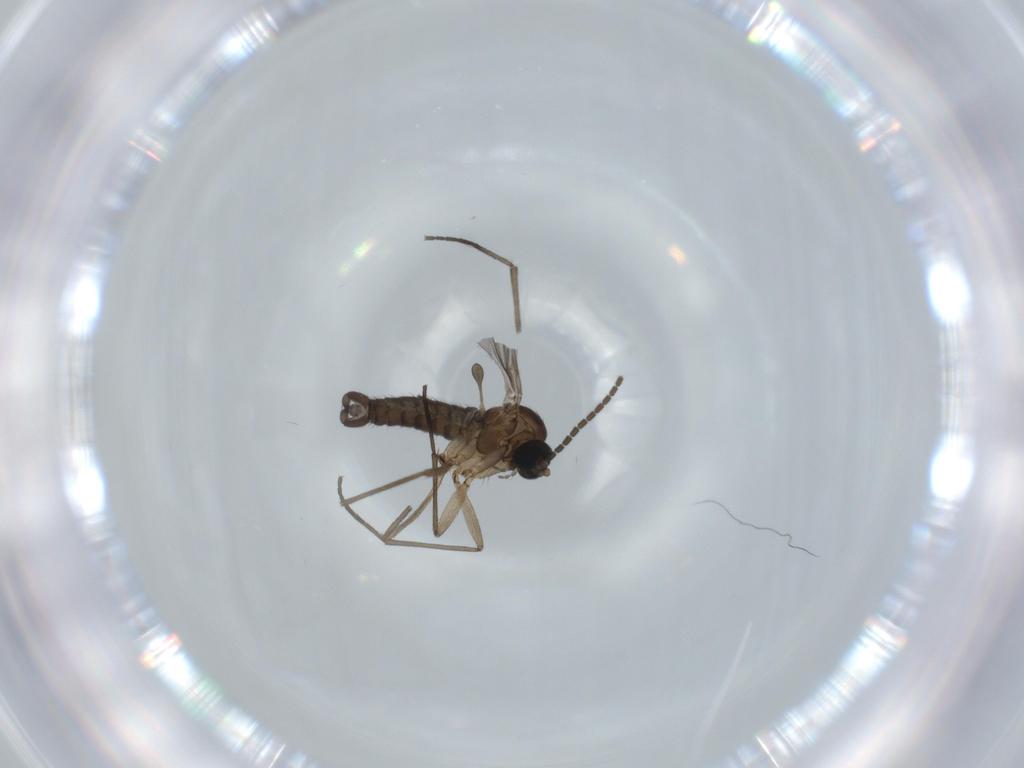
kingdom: Animalia
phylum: Arthropoda
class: Insecta
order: Diptera
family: Sciaridae
